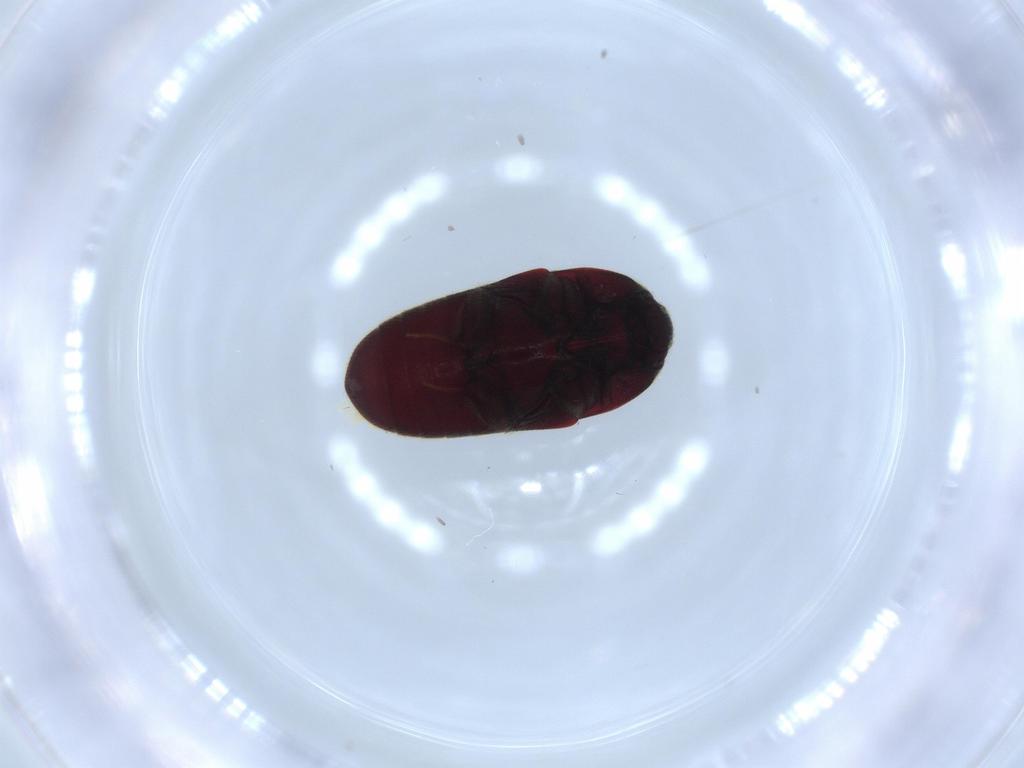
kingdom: Animalia
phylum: Arthropoda
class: Insecta
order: Coleoptera
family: Throscidae
